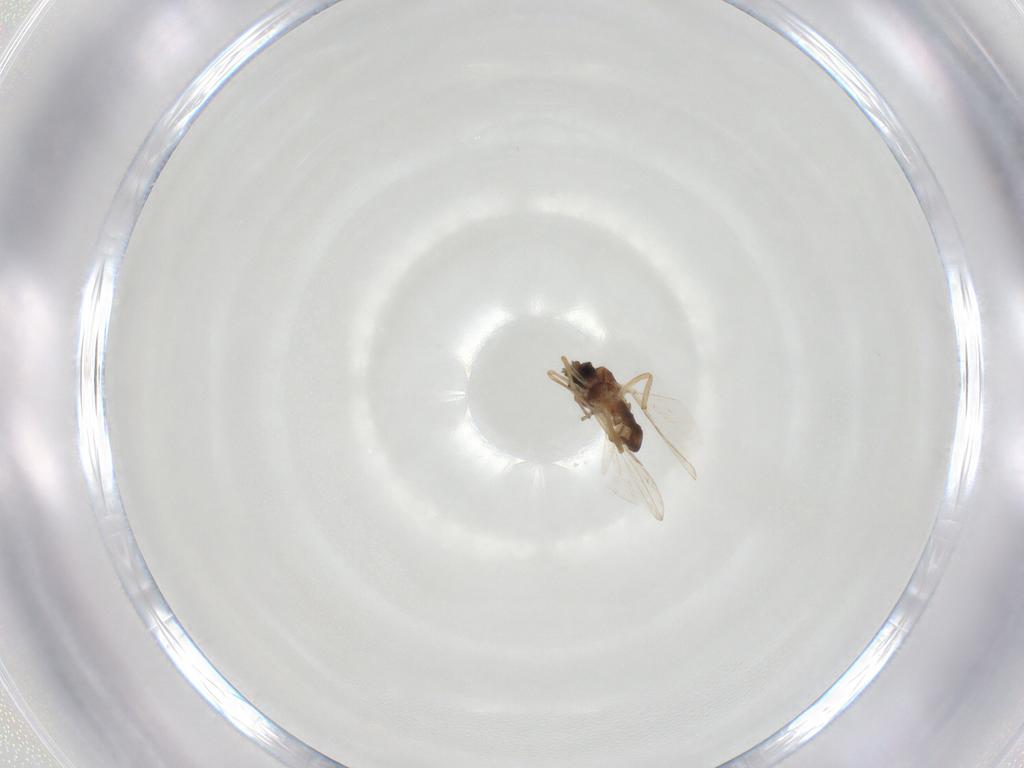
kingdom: Animalia
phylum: Arthropoda
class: Insecta
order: Diptera
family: Ceratopogonidae
